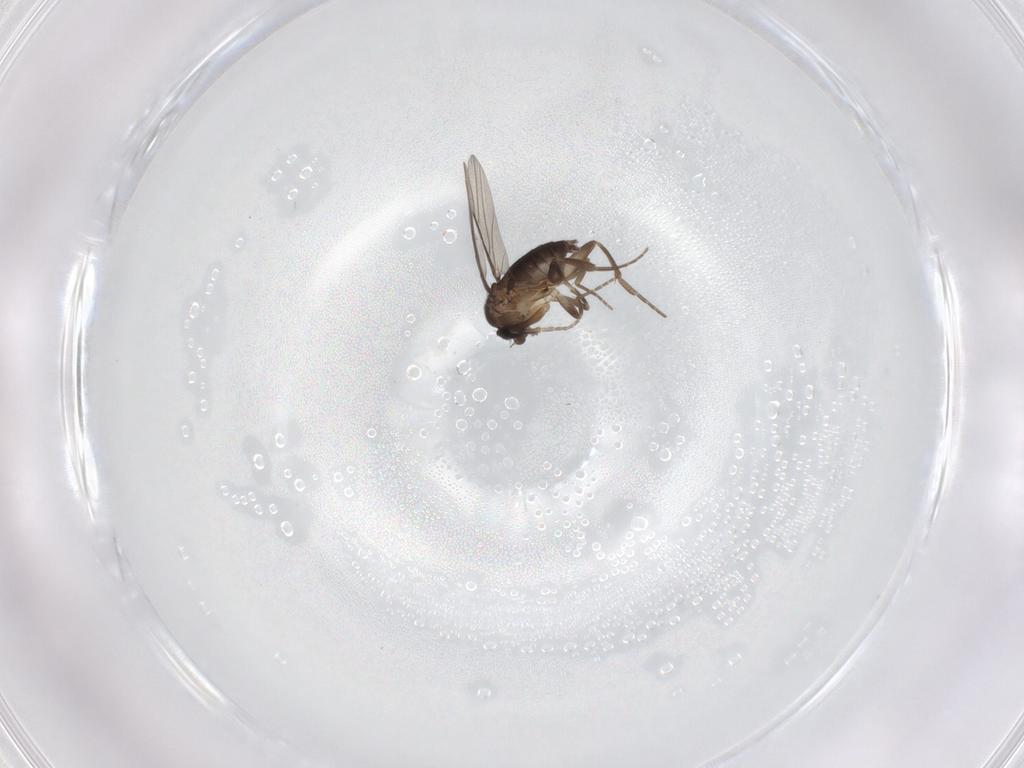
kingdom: Animalia
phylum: Arthropoda
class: Insecta
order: Diptera
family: Phoridae
